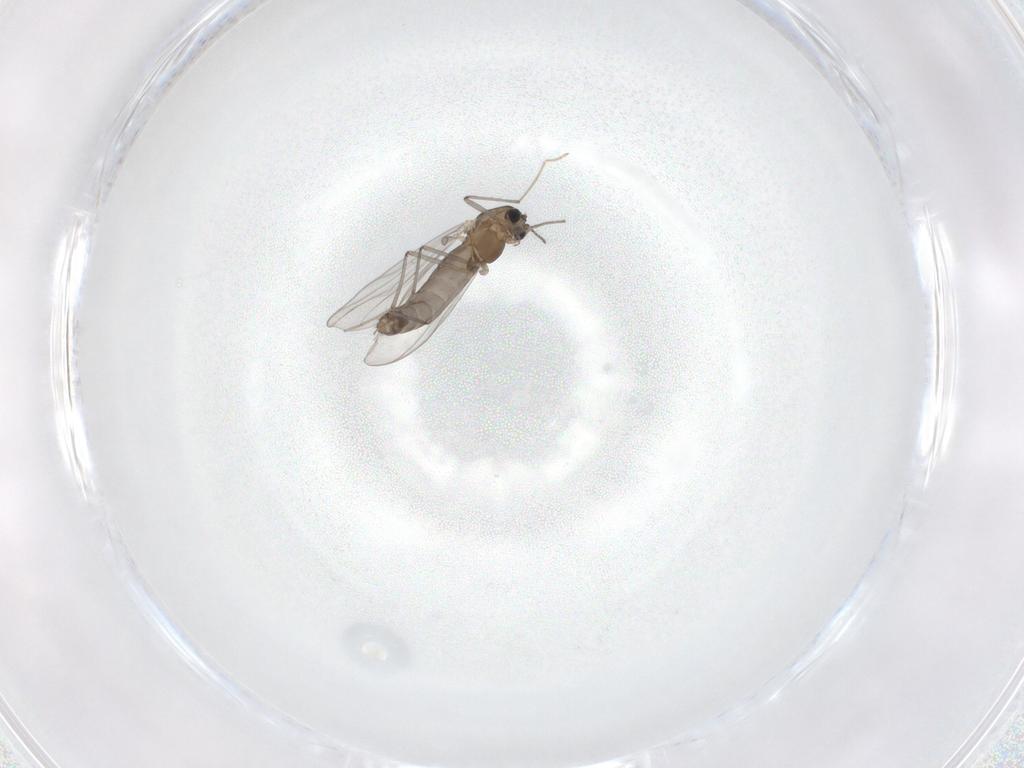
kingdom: Animalia
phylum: Arthropoda
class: Insecta
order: Diptera
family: Chironomidae
